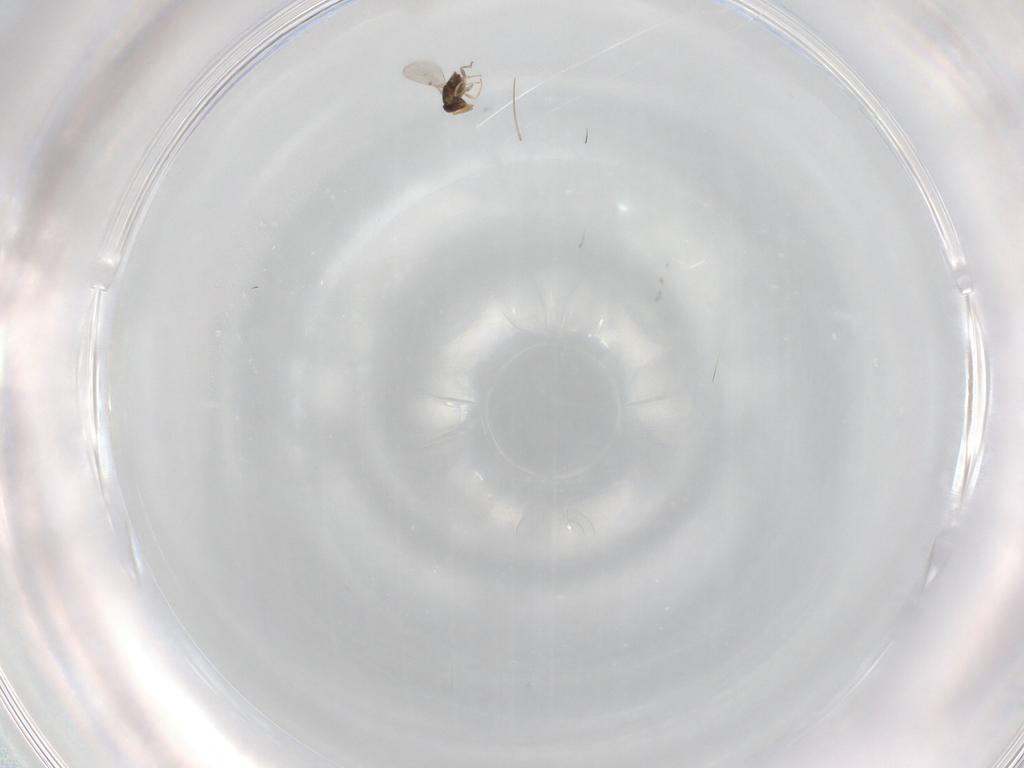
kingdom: Animalia
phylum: Arthropoda
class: Insecta
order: Hymenoptera
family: Encyrtidae
